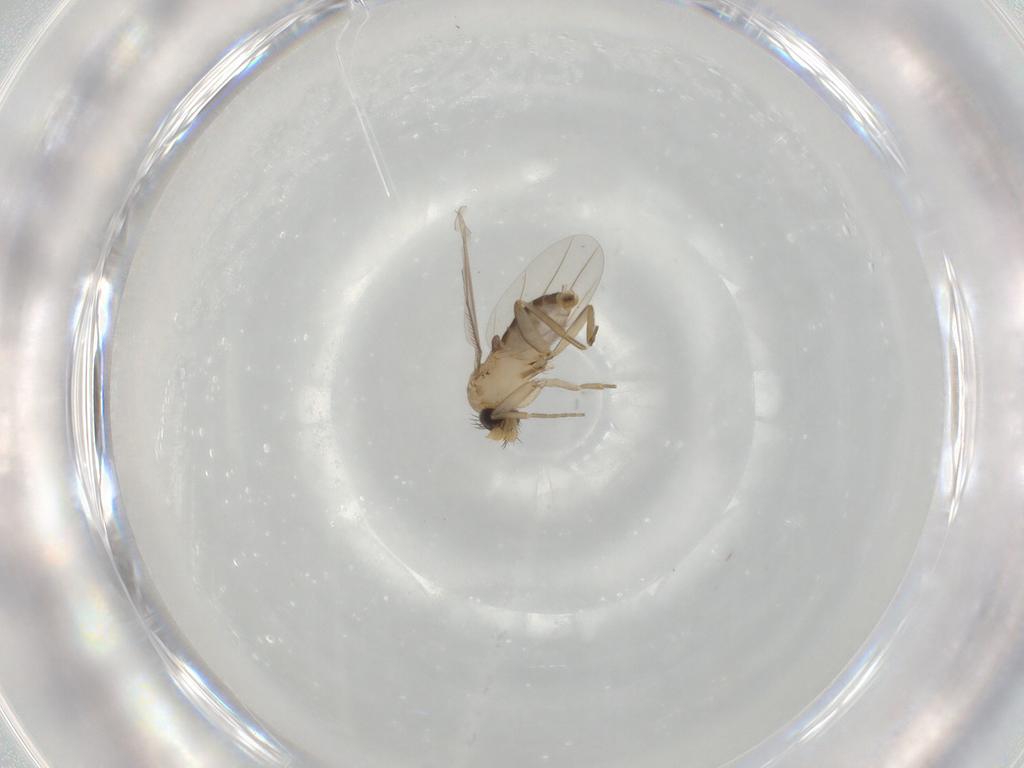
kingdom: Animalia
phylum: Arthropoda
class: Insecta
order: Diptera
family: Phoridae
